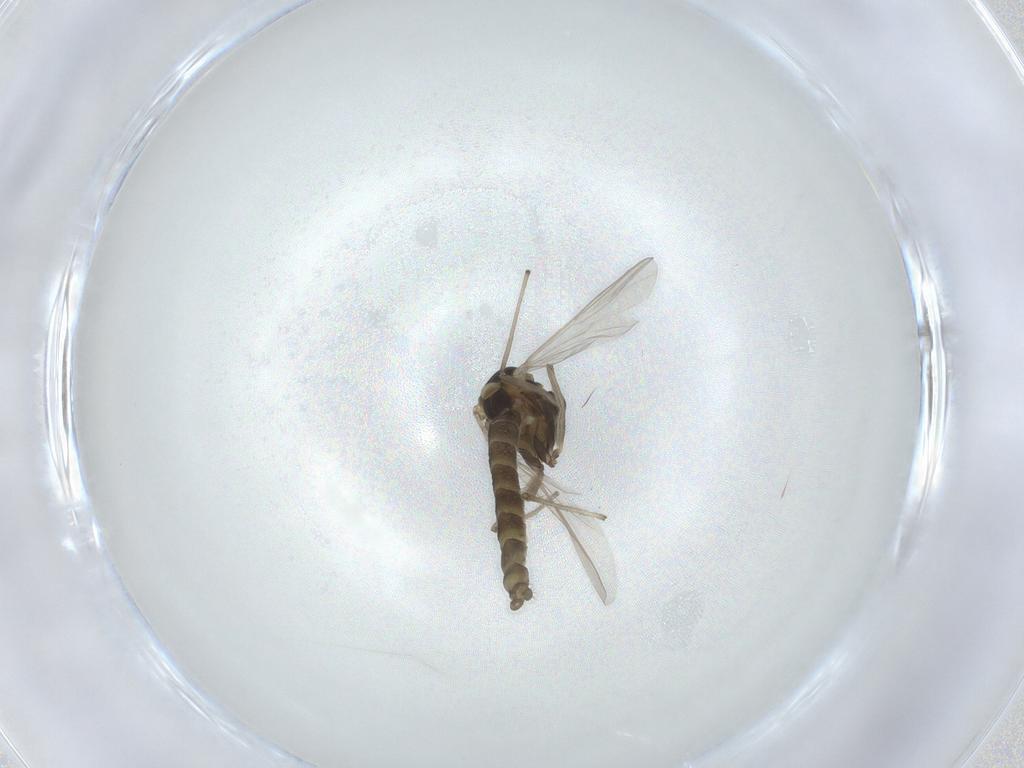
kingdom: Animalia
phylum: Arthropoda
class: Insecta
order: Diptera
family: Chironomidae
